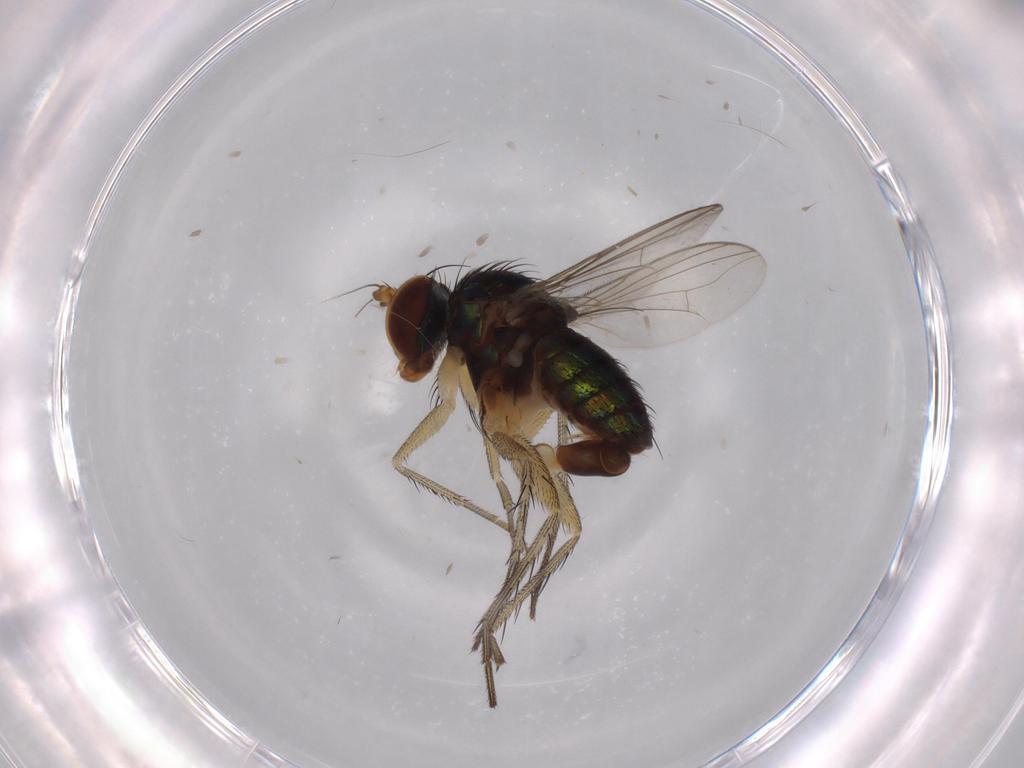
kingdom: Animalia
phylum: Arthropoda
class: Insecta
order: Diptera
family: Dolichopodidae
